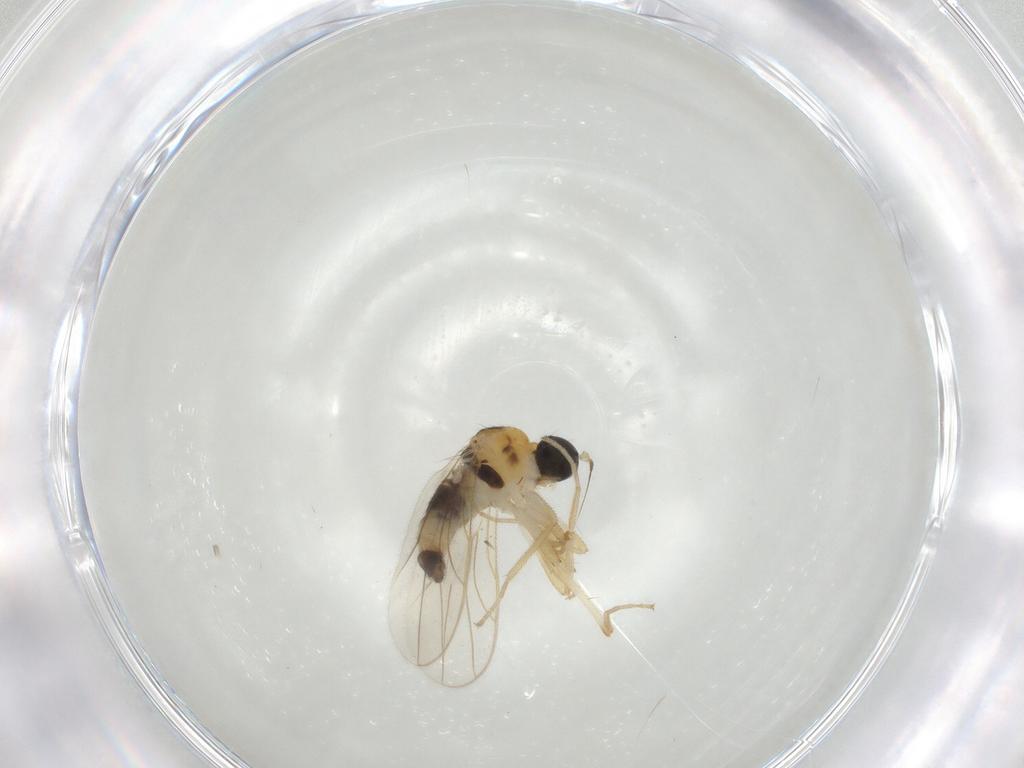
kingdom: Animalia
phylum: Arthropoda
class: Insecta
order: Diptera
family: Hybotidae
